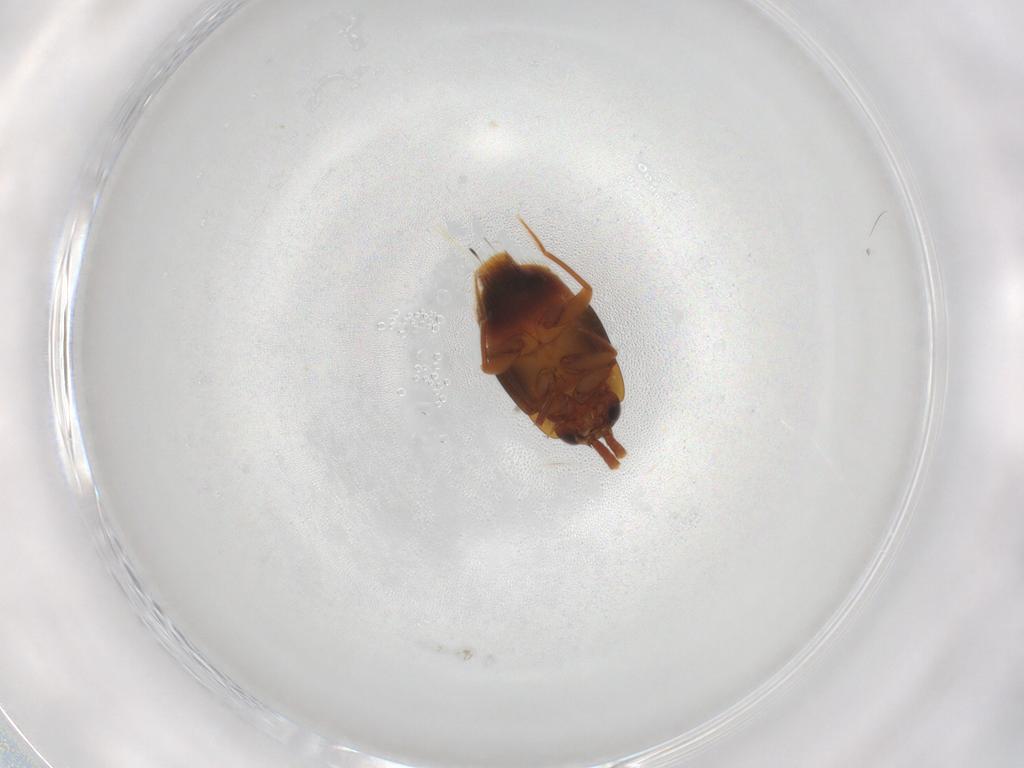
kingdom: Animalia
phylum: Arthropoda
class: Insecta
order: Coleoptera
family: Staphylinidae
